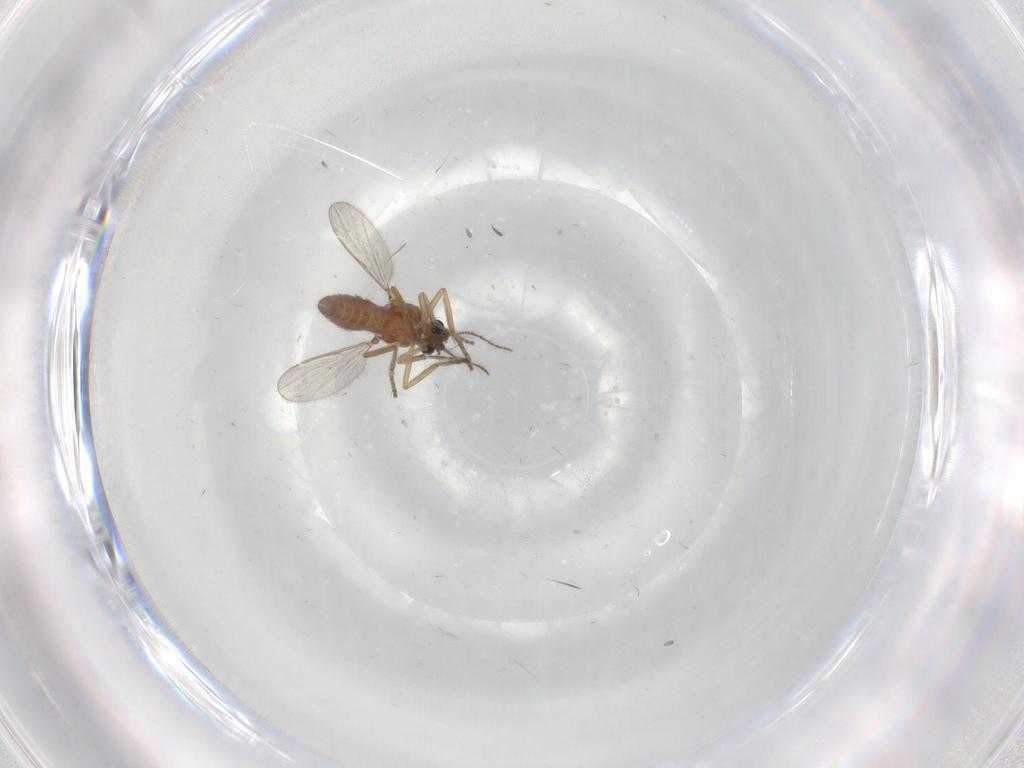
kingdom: Animalia
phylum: Arthropoda
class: Insecta
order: Diptera
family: Ceratopogonidae
